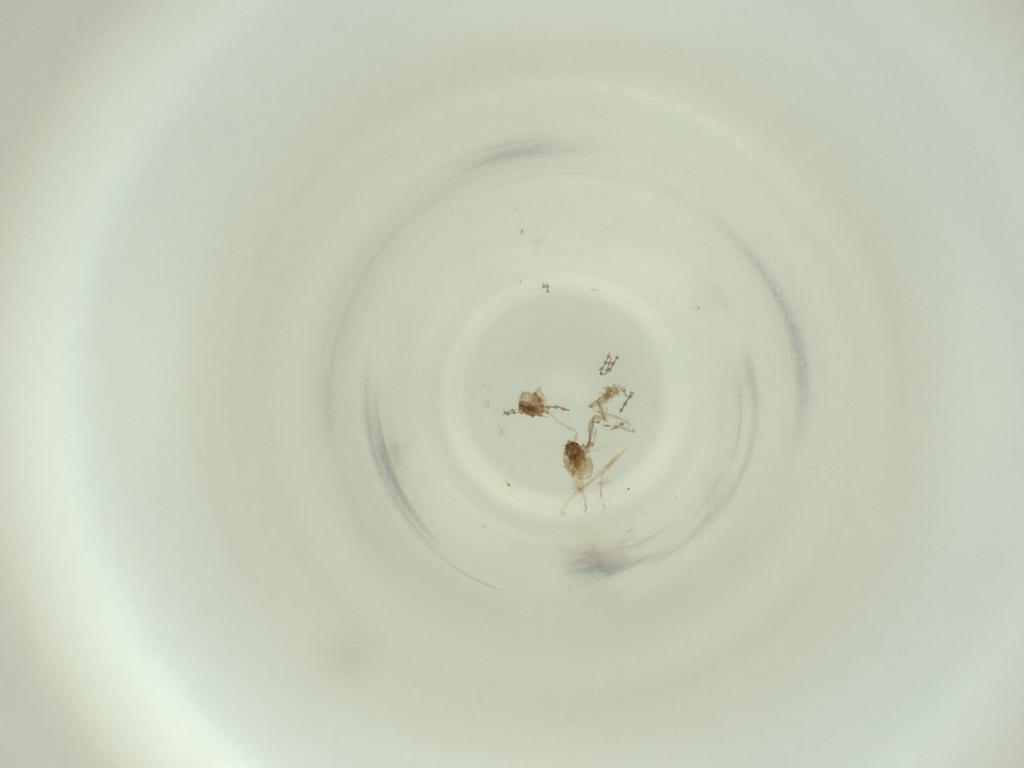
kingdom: Animalia
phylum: Arthropoda
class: Insecta
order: Diptera
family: Cecidomyiidae
